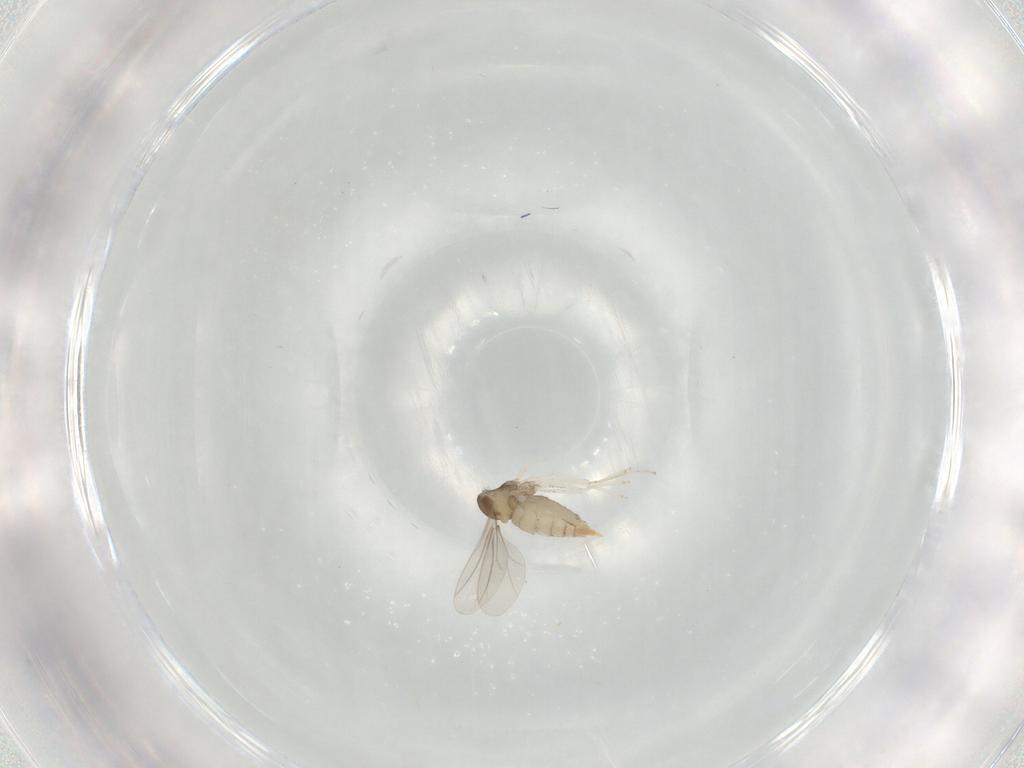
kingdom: Animalia
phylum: Arthropoda
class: Insecta
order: Diptera
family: Cecidomyiidae
